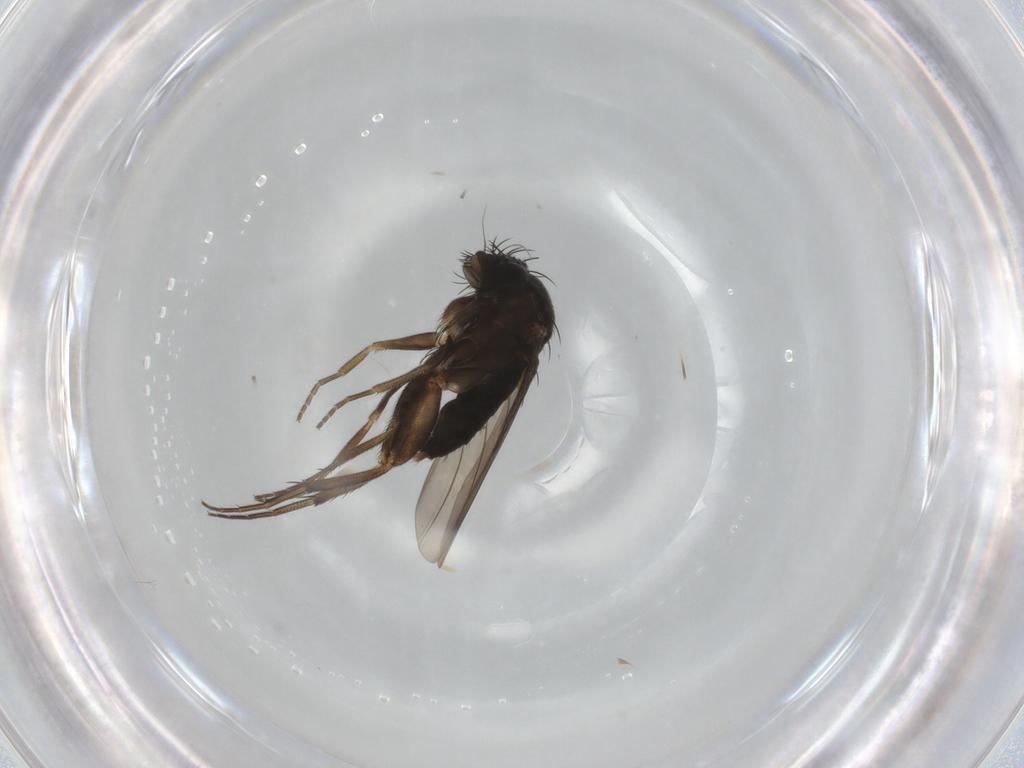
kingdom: Animalia
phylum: Arthropoda
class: Insecta
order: Diptera
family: Phoridae
